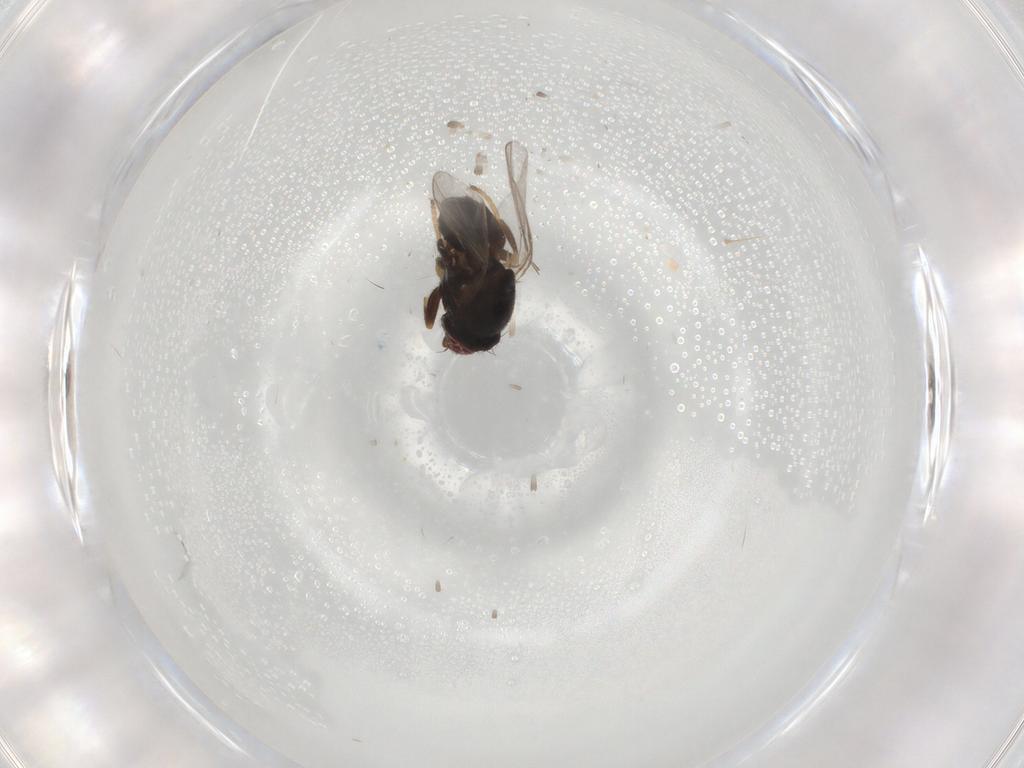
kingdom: Animalia
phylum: Arthropoda
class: Insecta
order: Diptera
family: Chloropidae
